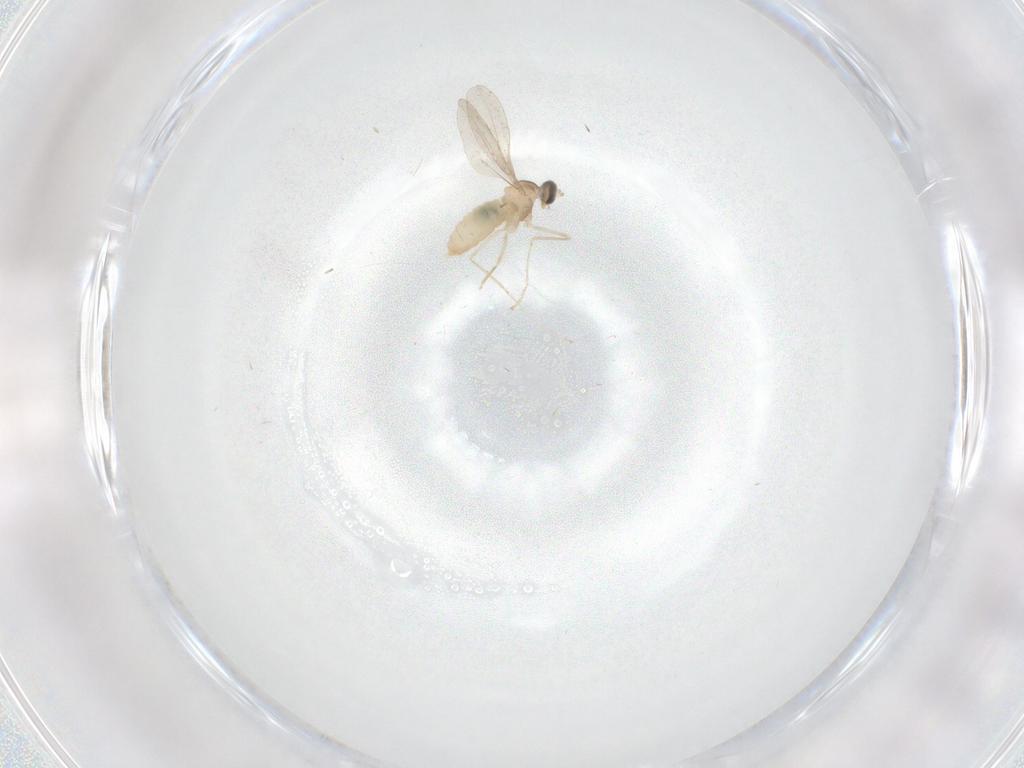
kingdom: Animalia
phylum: Arthropoda
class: Insecta
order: Diptera
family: Cecidomyiidae
